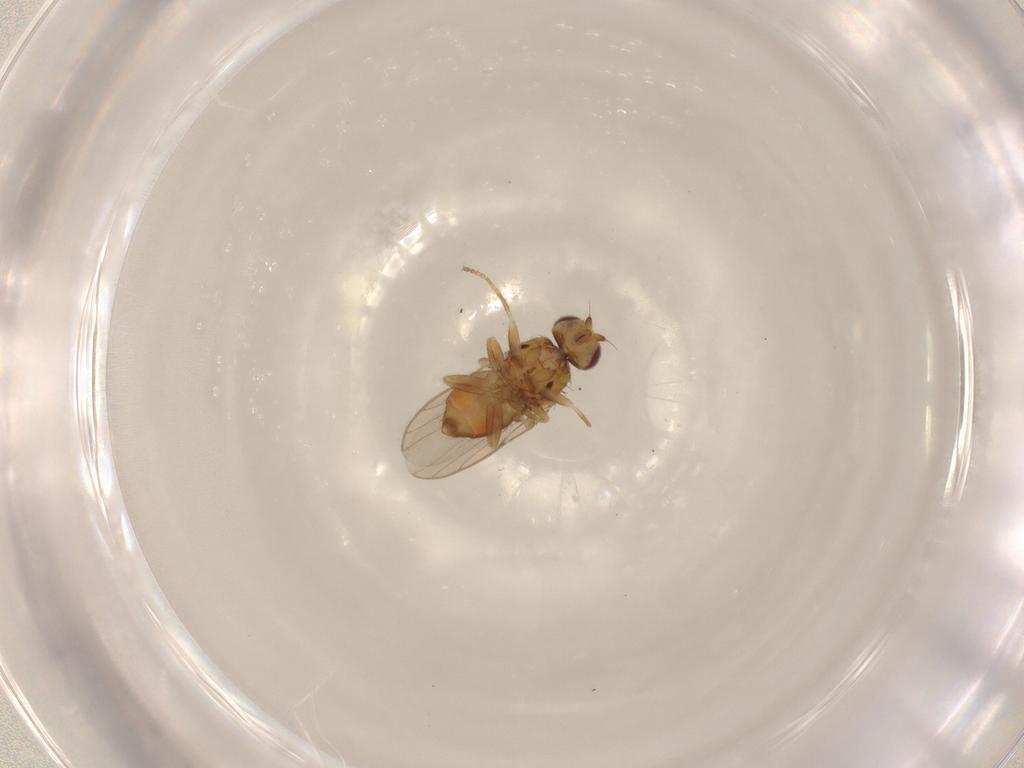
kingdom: Animalia
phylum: Arthropoda
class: Insecta
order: Diptera
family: Chloropidae
